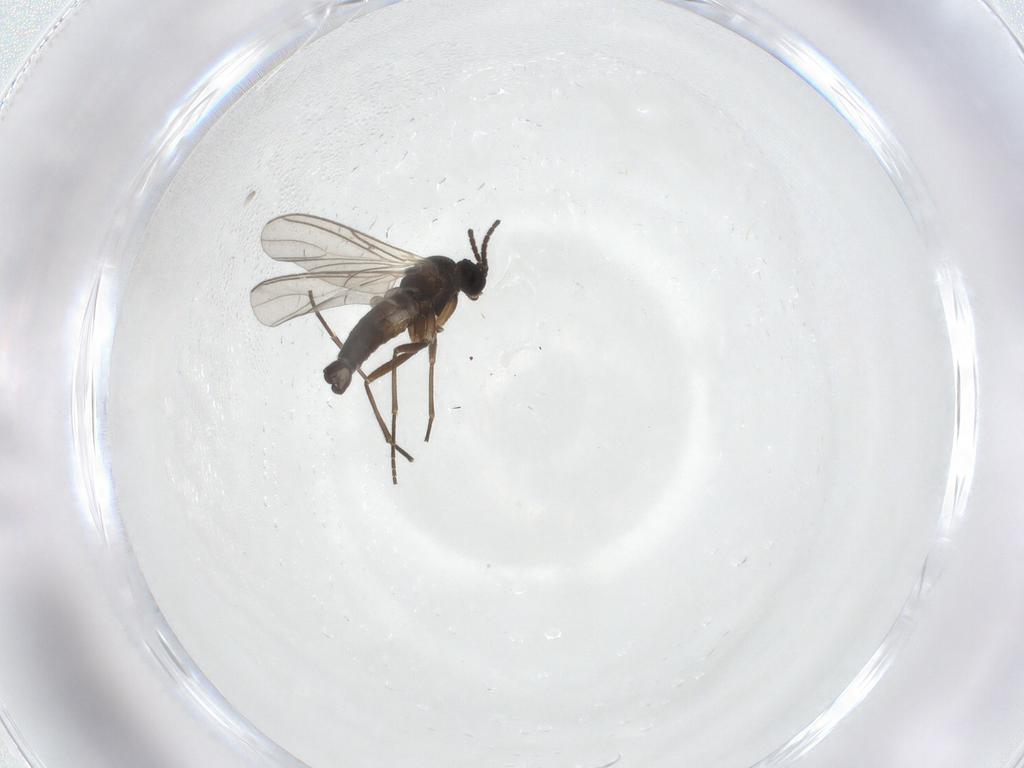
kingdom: Animalia
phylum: Arthropoda
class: Insecta
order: Diptera
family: Sciaridae
